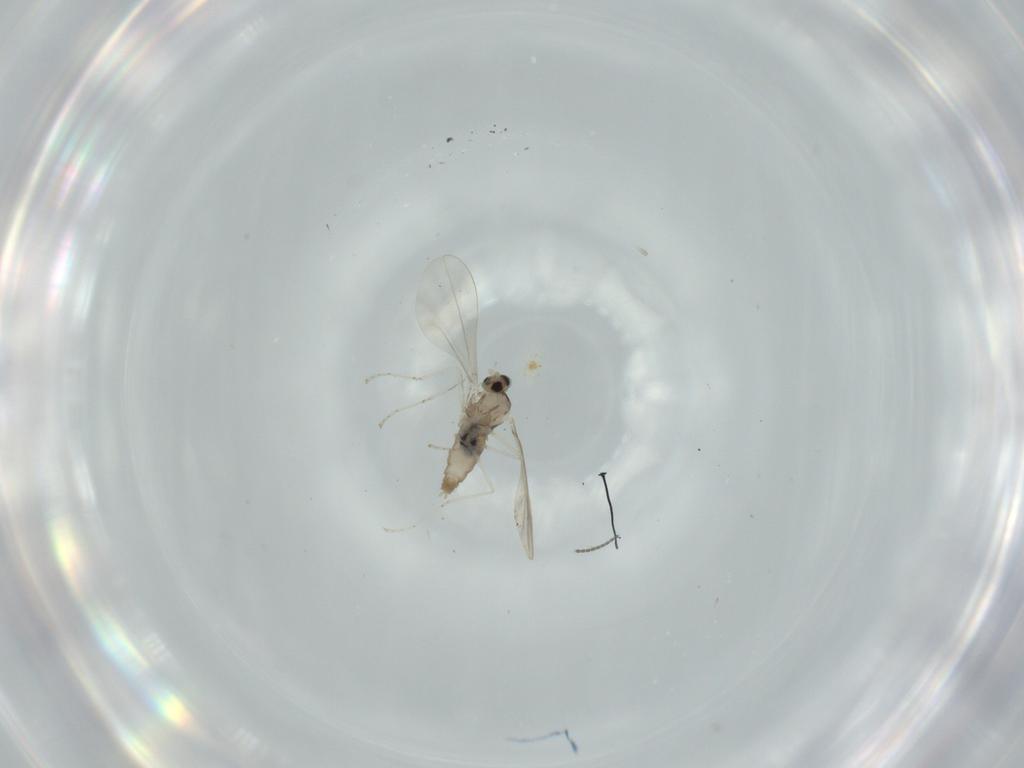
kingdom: Animalia
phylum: Arthropoda
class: Insecta
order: Diptera
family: Cecidomyiidae
